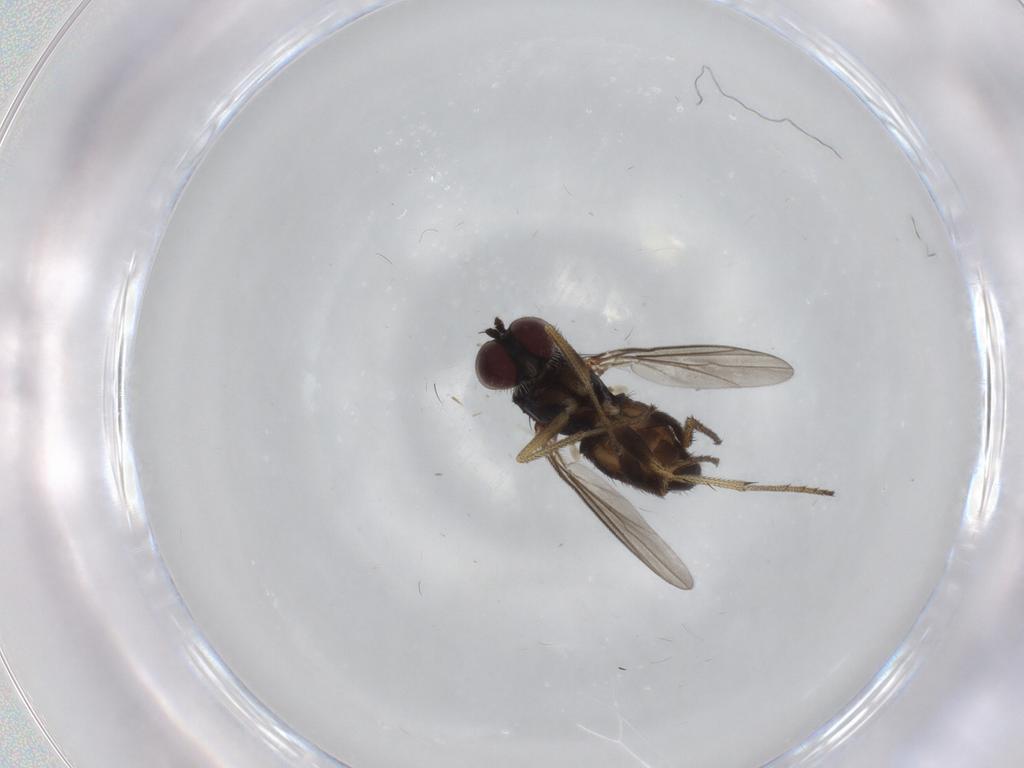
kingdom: Animalia
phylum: Arthropoda
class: Insecta
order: Diptera
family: Dolichopodidae
